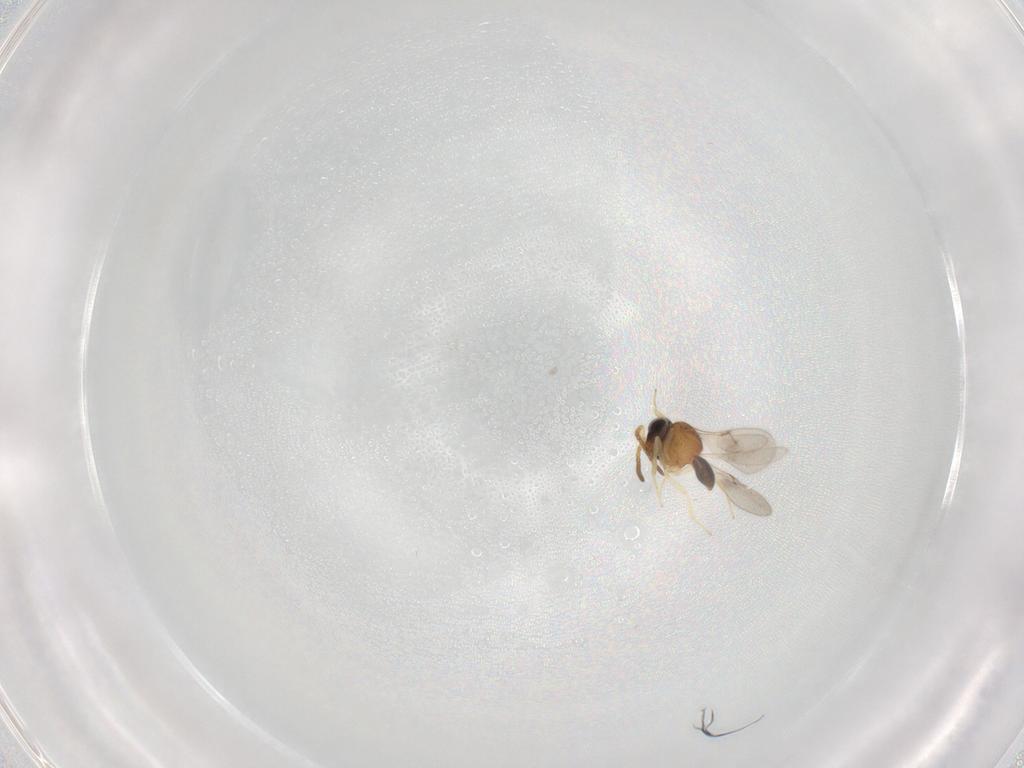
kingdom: Animalia
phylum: Arthropoda
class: Insecta
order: Hymenoptera
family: Scelionidae
